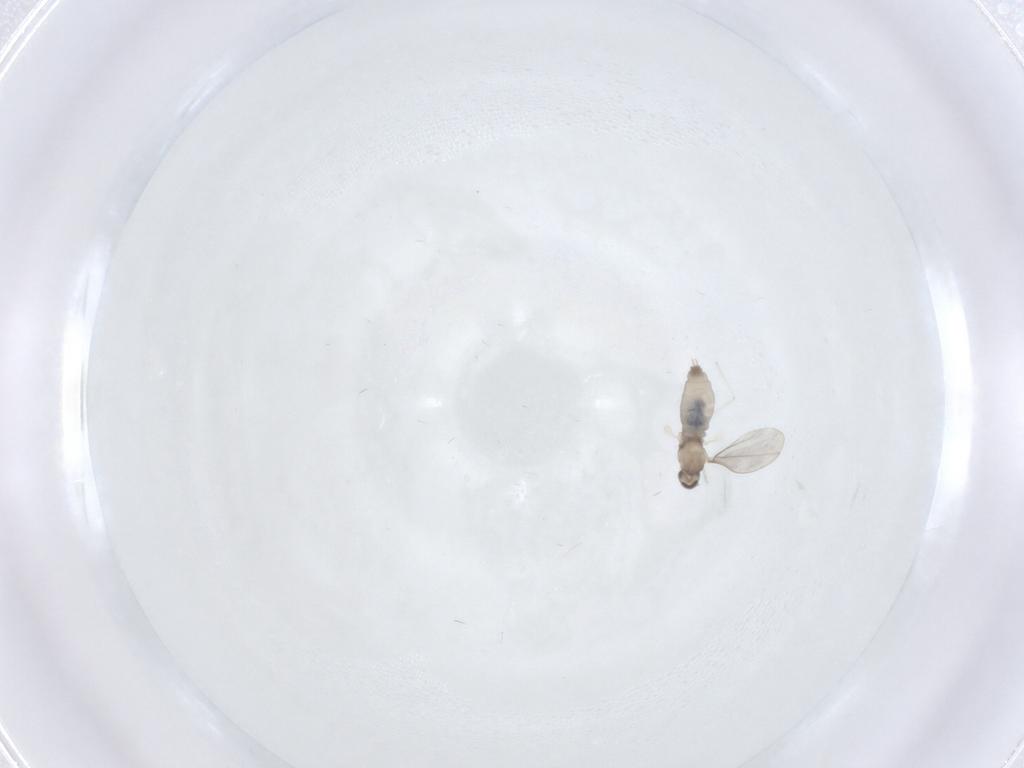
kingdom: Animalia
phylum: Arthropoda
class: Insecta
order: Diptera
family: Cecidomyiidae
